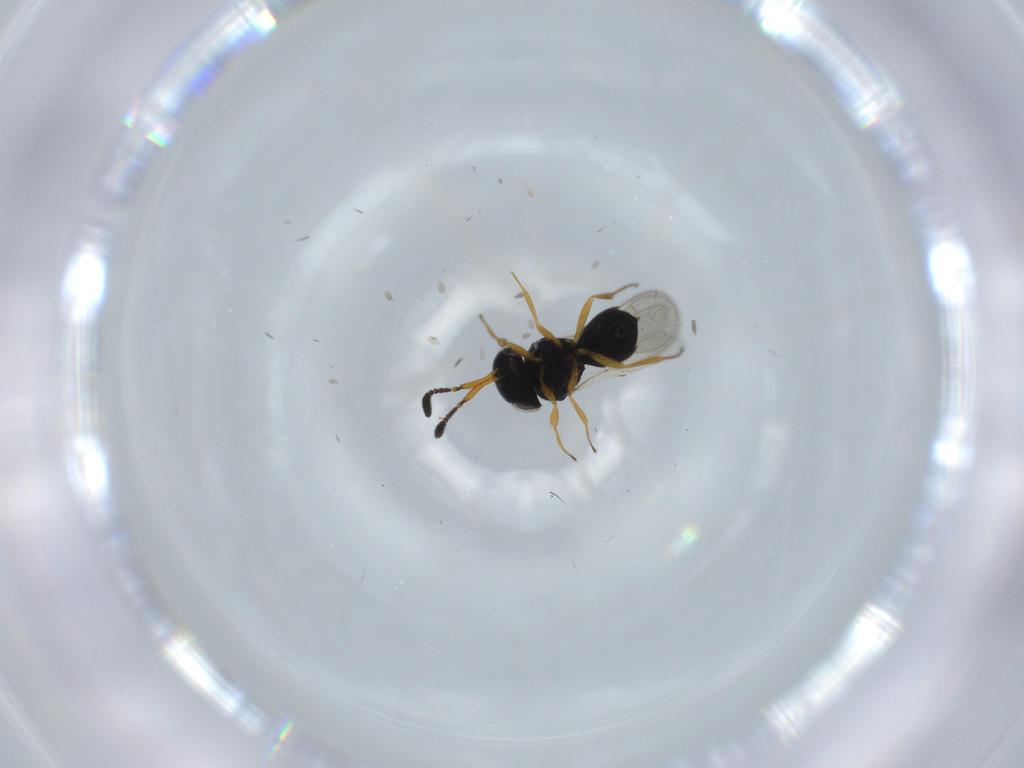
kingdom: Animalia
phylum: Arthropoda
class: Insecta
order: Hymenoptera
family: Scelionidae
